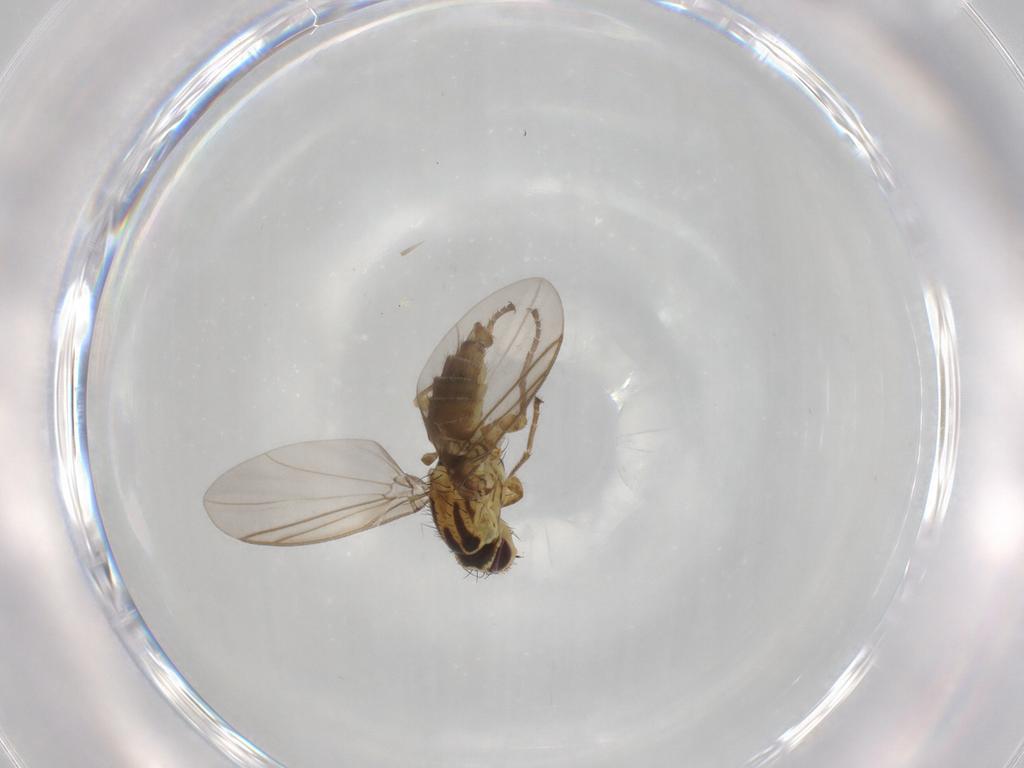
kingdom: Animalia
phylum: Arthropoda
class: Insecta
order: Diptera
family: Agromyzidae
